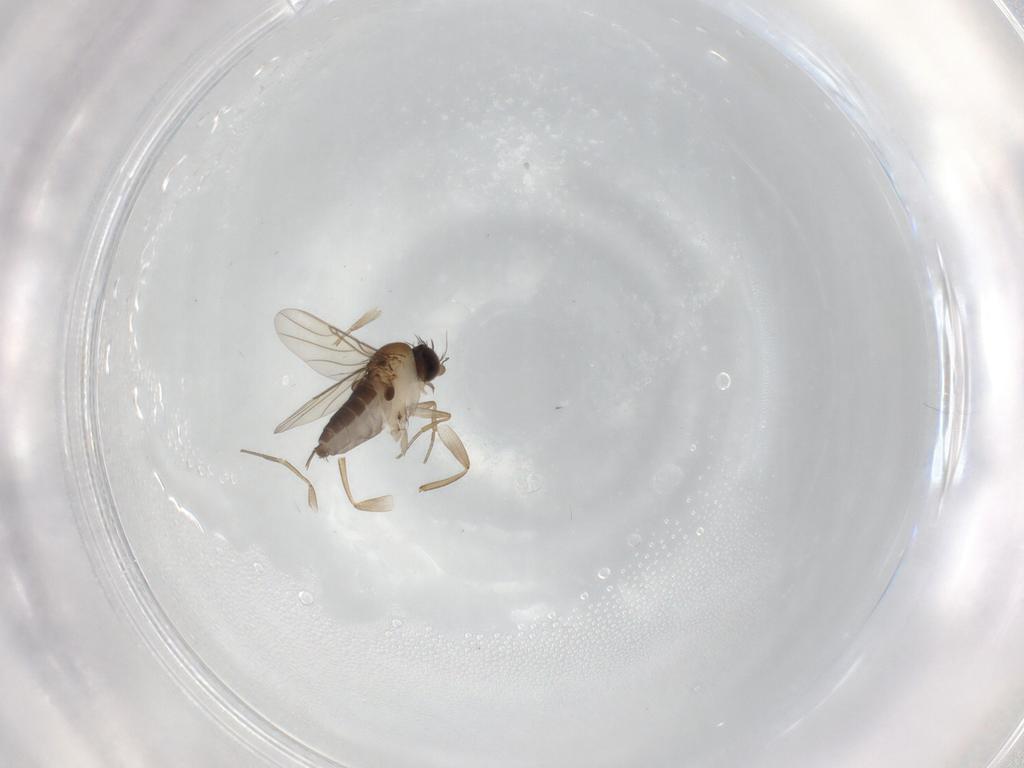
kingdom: Animalia
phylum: Arthropoda
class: Insecta
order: Diptera
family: Phoridae
